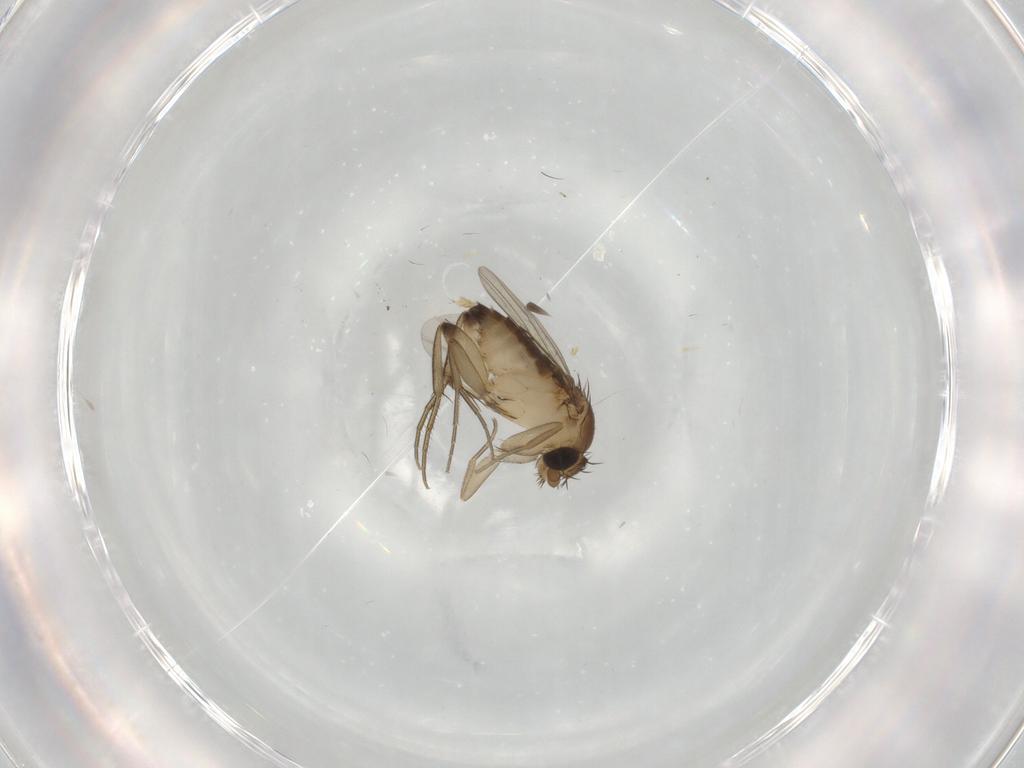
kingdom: Animalia
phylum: Arthropoda
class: Insecta
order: Diptera
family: Phoridae
